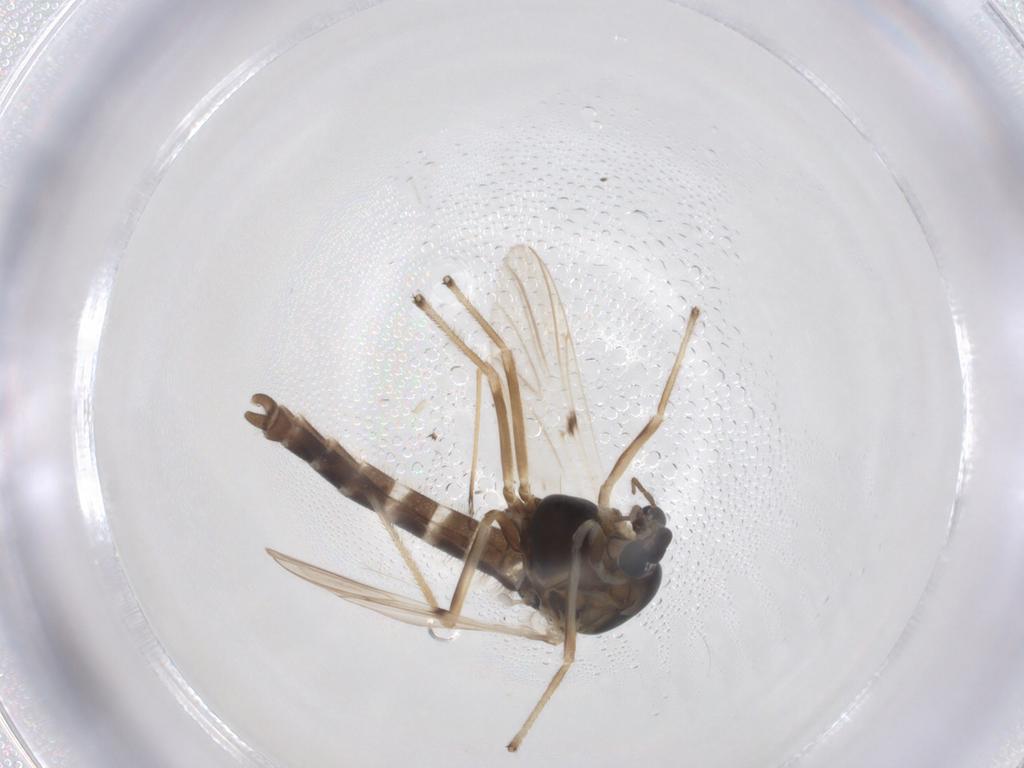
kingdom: Animalia
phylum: Arthropoda
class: Insecta
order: Diptera
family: Chironomidae
